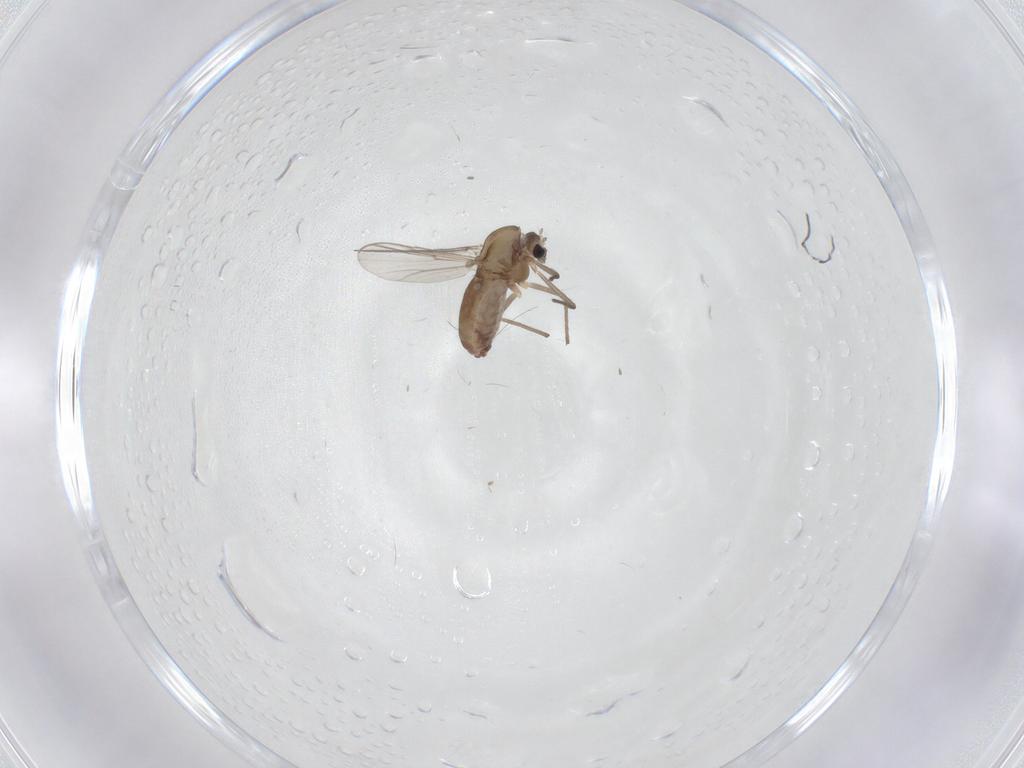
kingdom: Animalia
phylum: Arthropoda
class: Insecta
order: Diptera
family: Chironomidae
